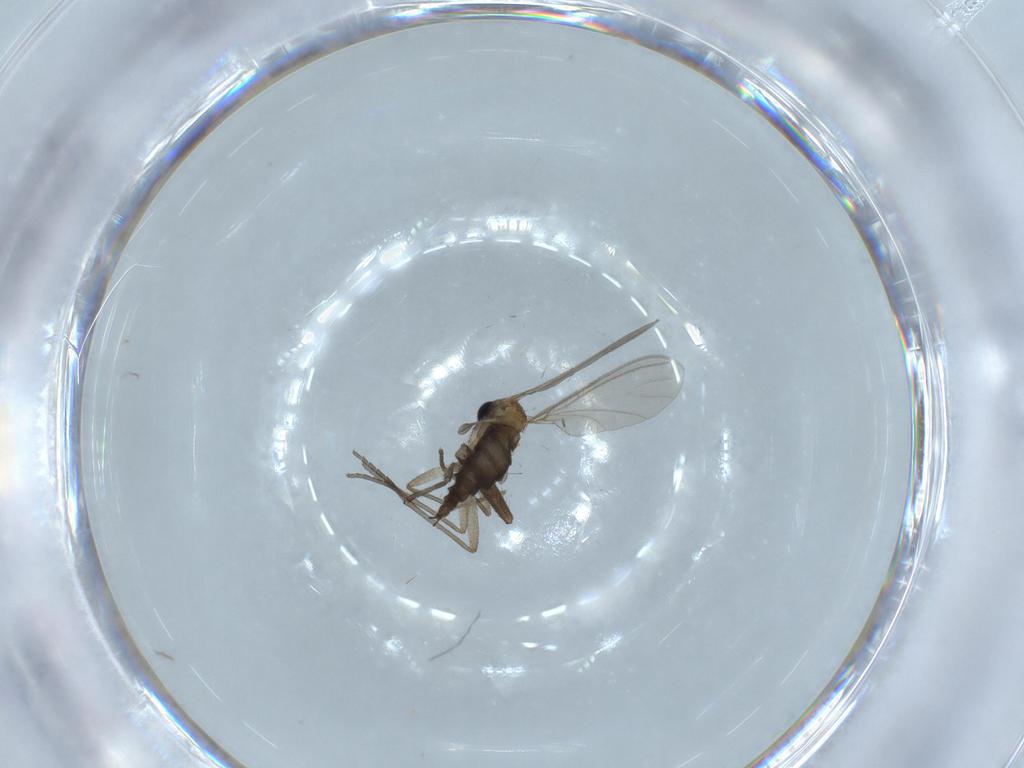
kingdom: Animalia
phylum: Arthropoda
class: Insecta
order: Diptera
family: Sciaridae
